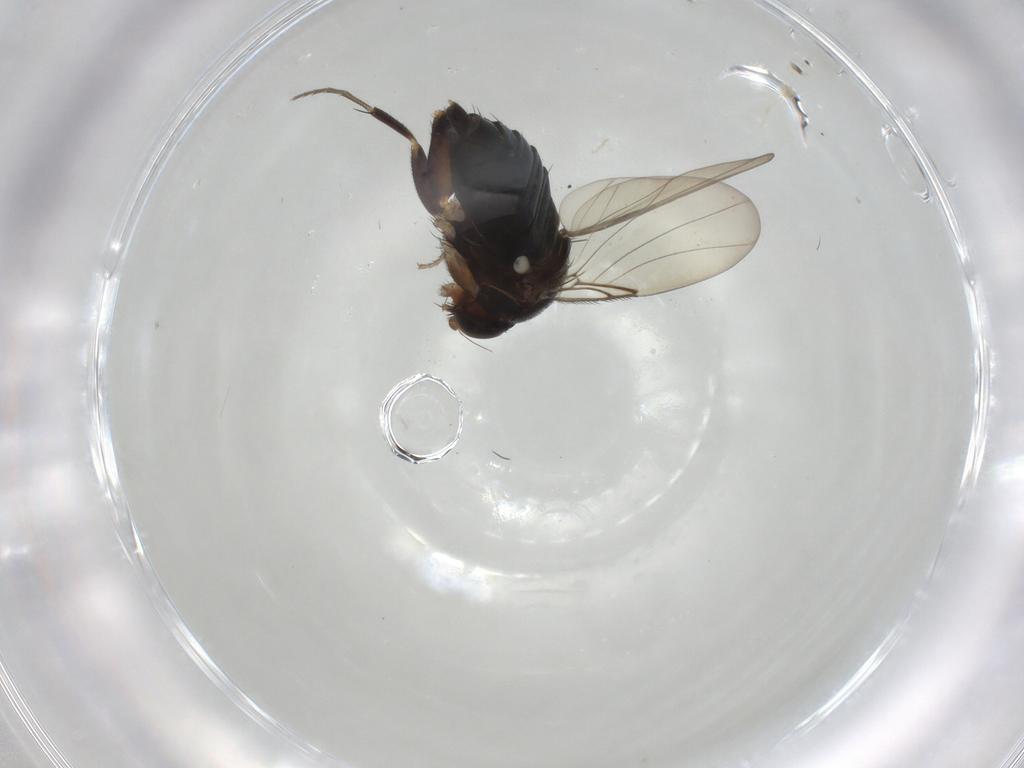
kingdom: Animalia
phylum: Arthropoda
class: Insecta
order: Diptera
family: Phoridae
